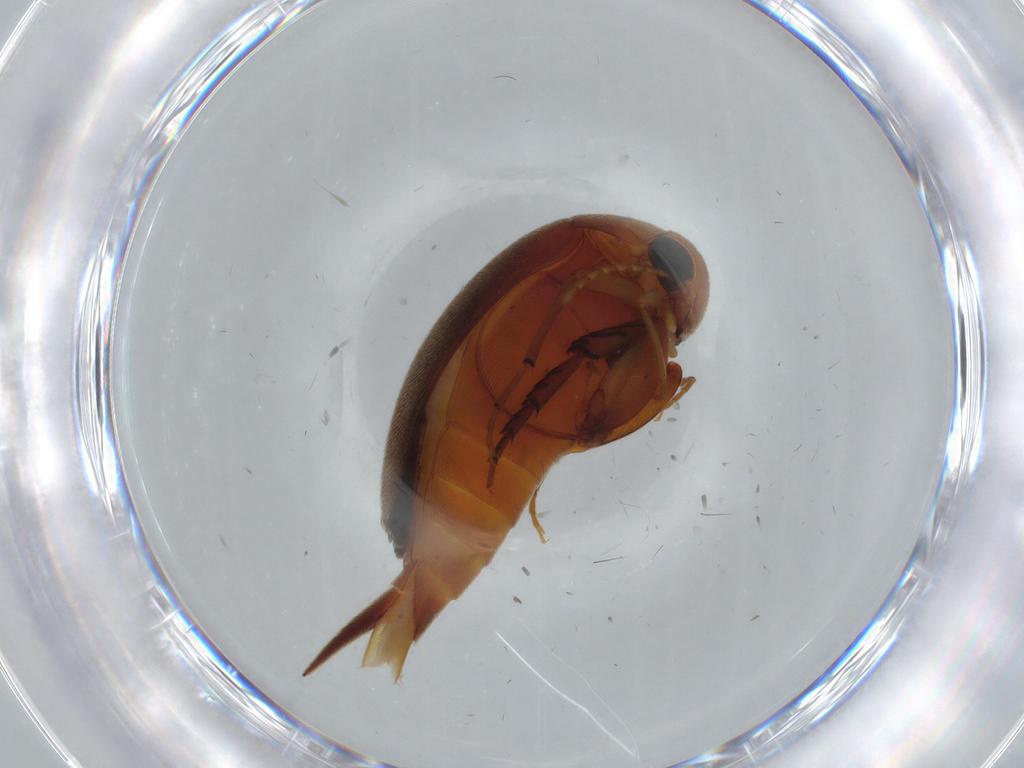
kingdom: Animalia
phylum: Arthropoda
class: Insecta
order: Coleoptera
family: Mordellidae
